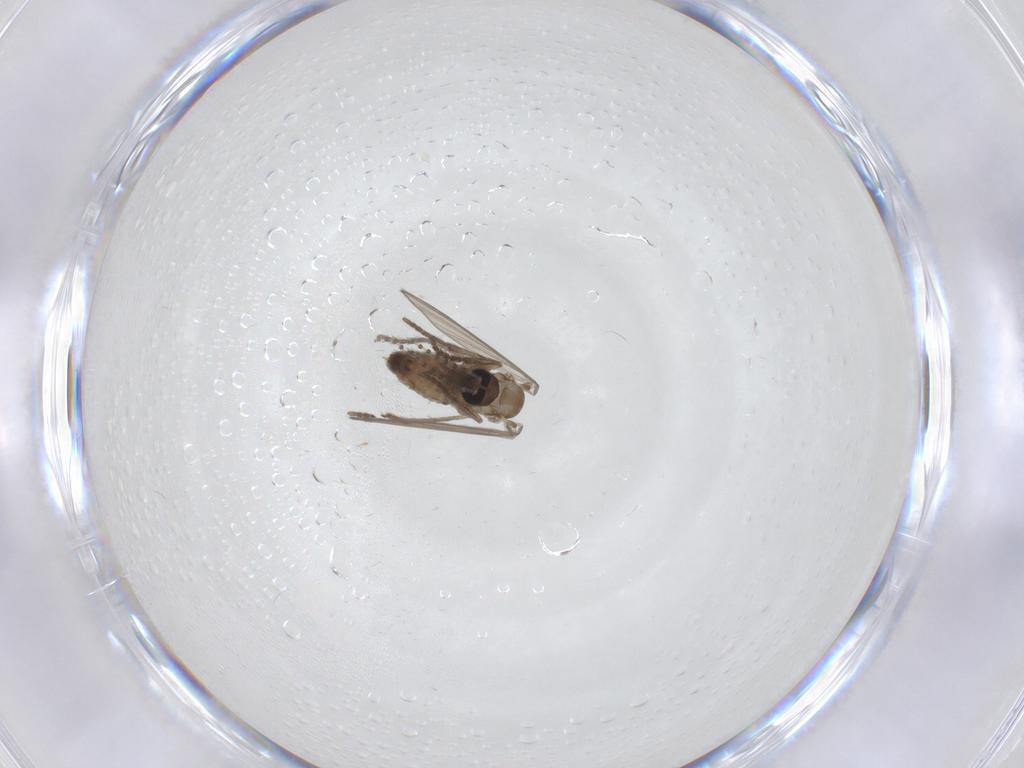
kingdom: Animalia
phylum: Arthropoda
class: Insecta
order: Diptera
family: Psychodidae
